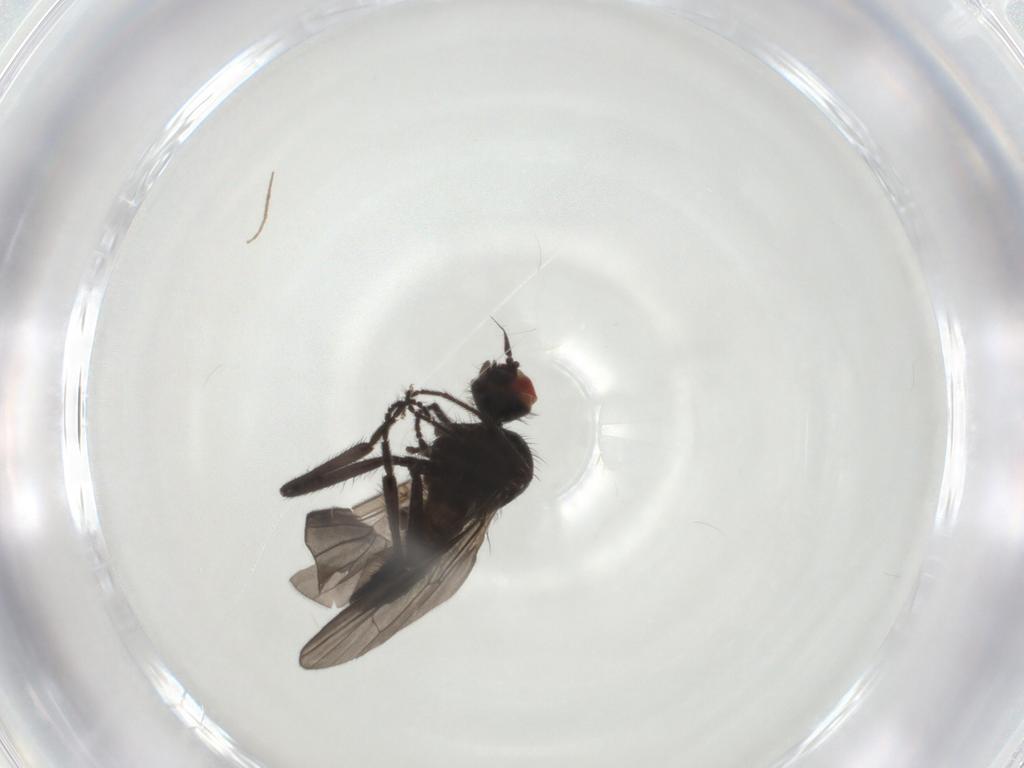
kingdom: Animalia
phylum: Arthropoda
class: Insecta
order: Diptera
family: Hybotidae
